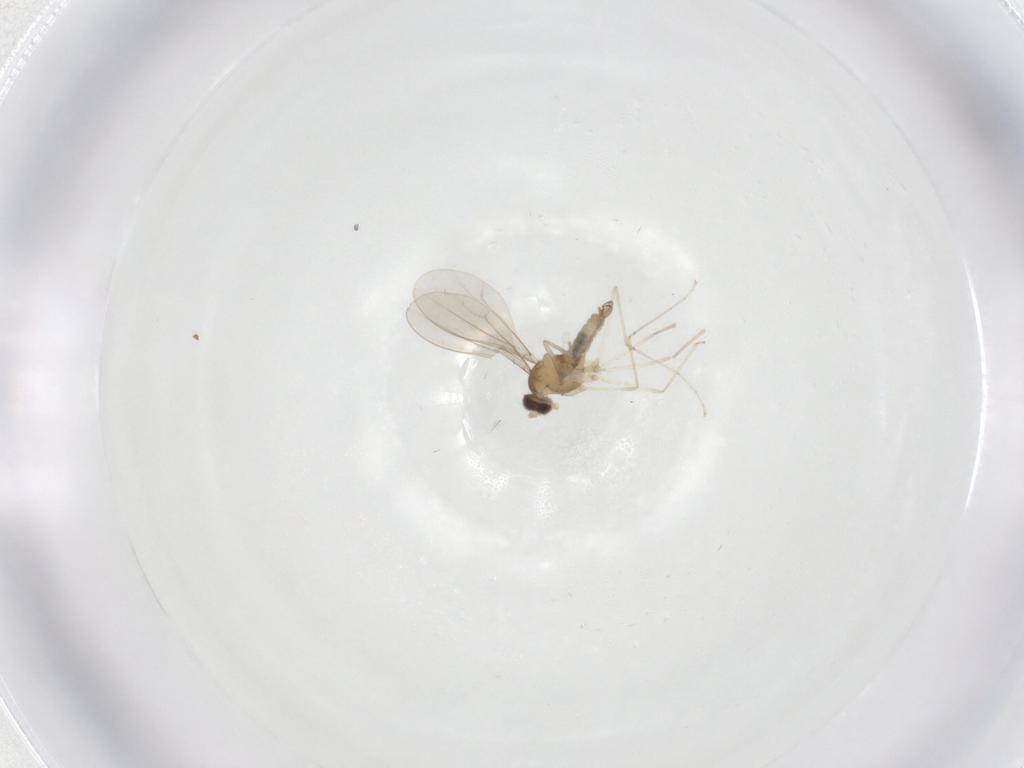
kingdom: Animalia
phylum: Arthropoda
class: Insecta
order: Diptera
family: Cecidomyiidae
